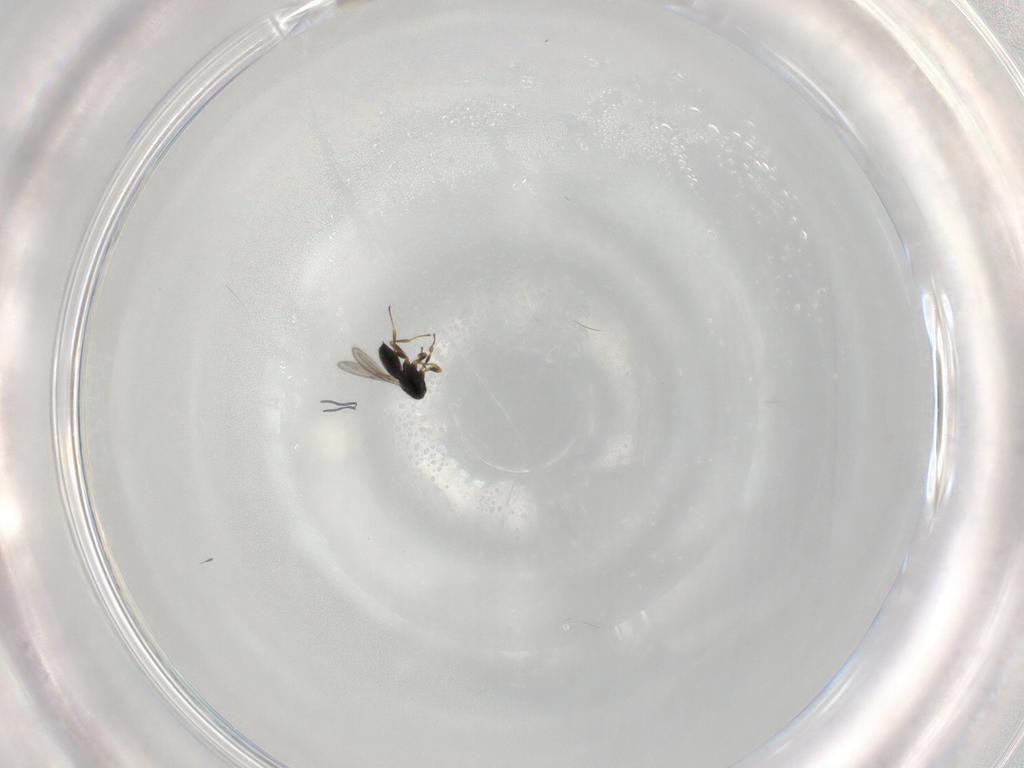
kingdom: Animalia
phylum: Arthropoda
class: Insecta
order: Hymenoptera
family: Scelionidae
